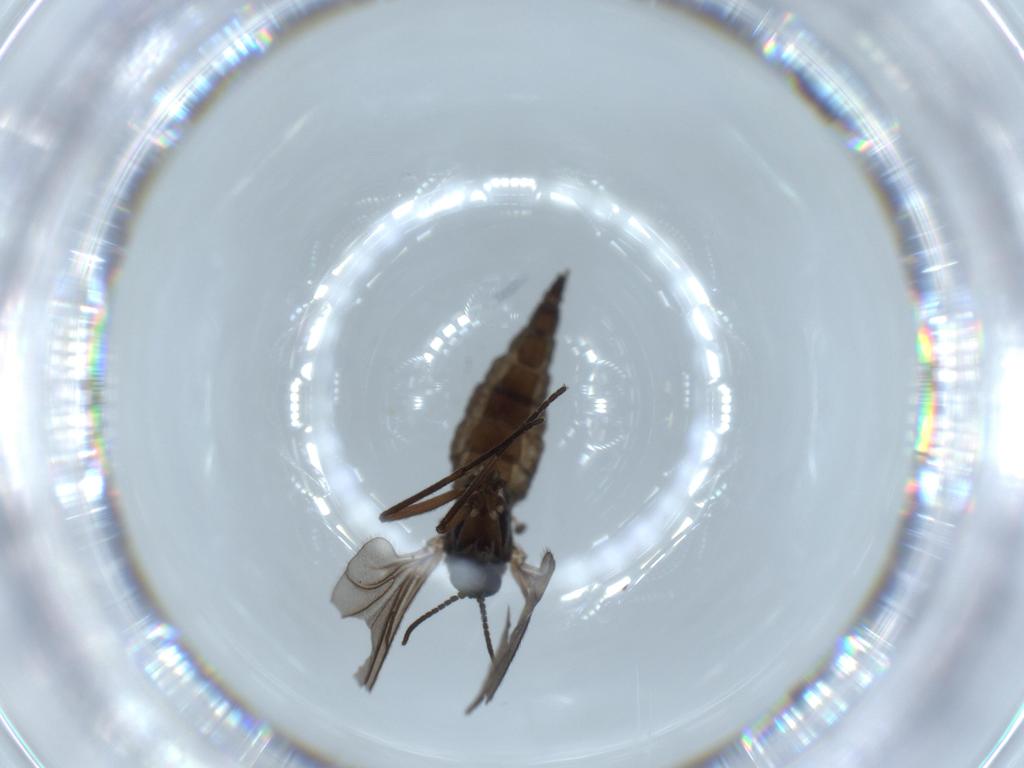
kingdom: Animalia
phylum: Arthropoda
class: Insecta
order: Diptera
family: Sciaridae
